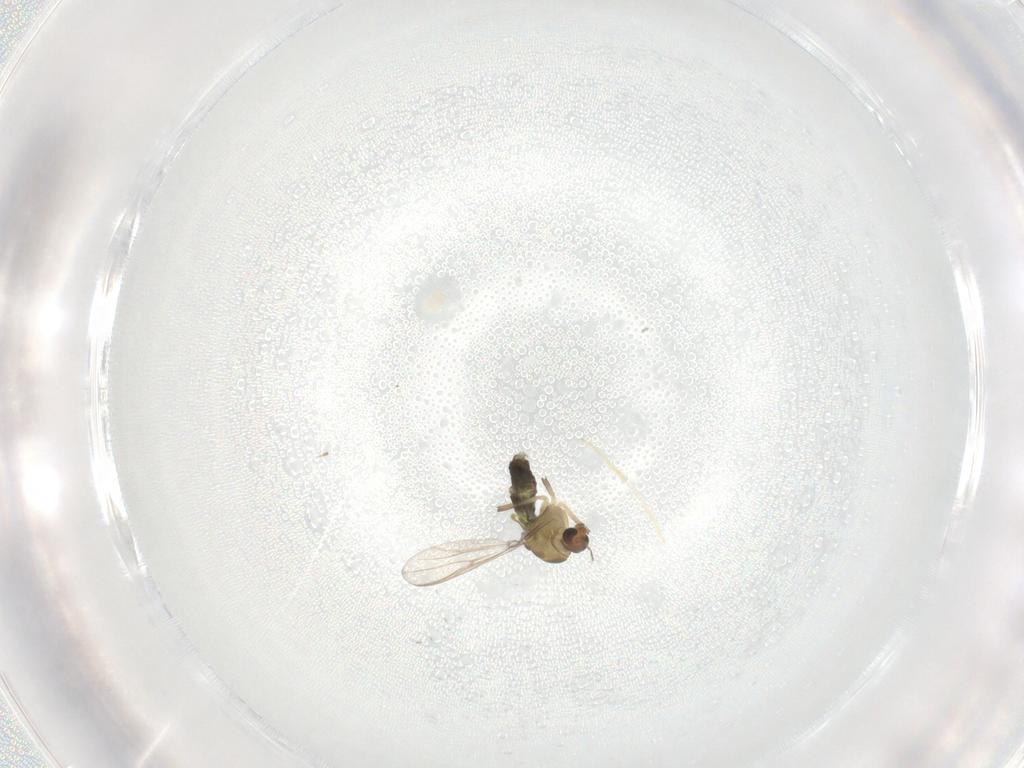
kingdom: Animalia
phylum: Arthropoda
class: Insecta
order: Diptera
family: Chironomidae
